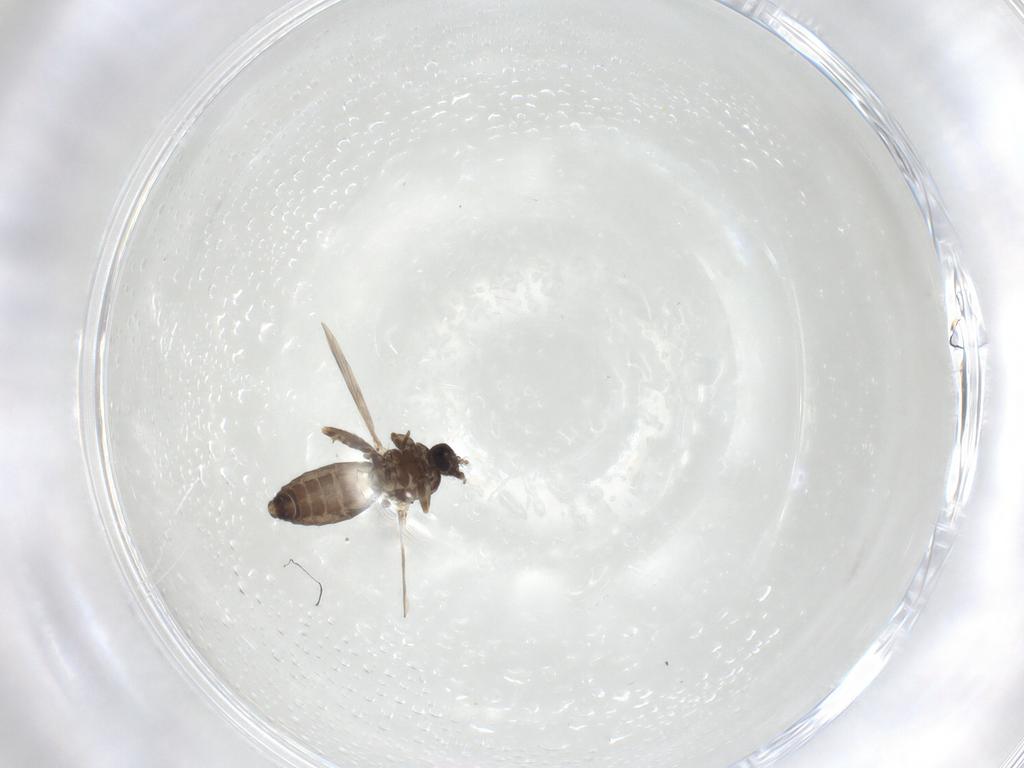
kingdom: Animalia
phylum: Arthropoda
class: Insecta
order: Diptera
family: Ceratopogonidae
